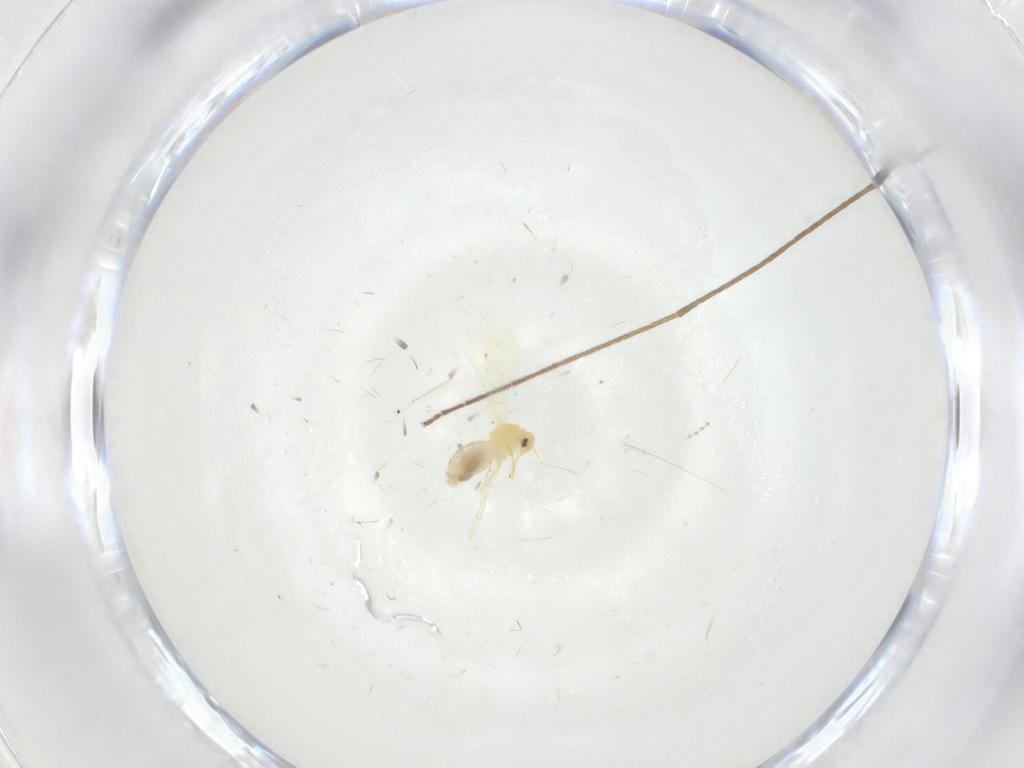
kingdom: Animalia
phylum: Arthropoda
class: Insecta
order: Hemiptera
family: Aleyrodidae
